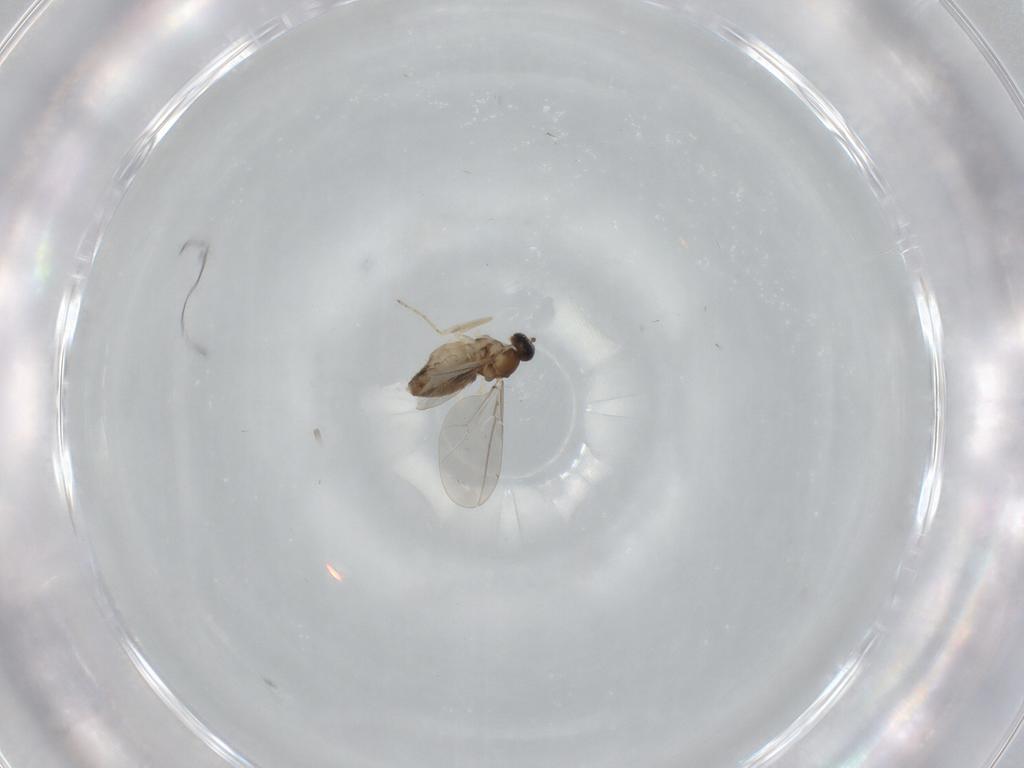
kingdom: Animalia
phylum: Arthropoda
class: Insecta
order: Diptera
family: Cecidomyiidae
